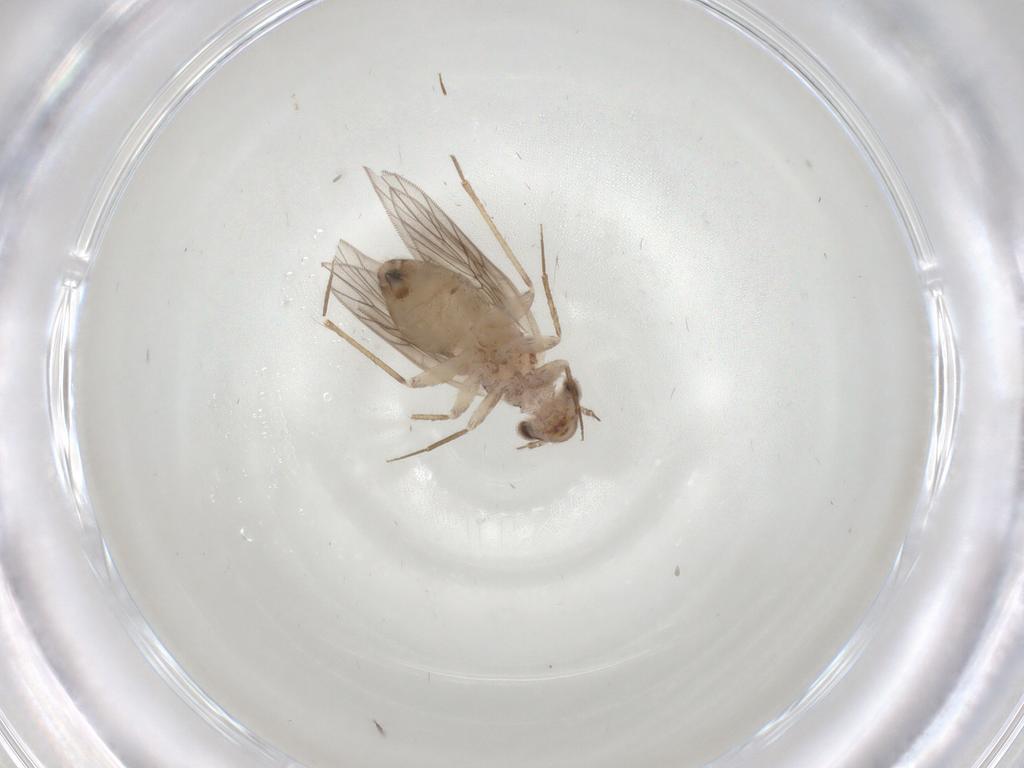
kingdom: Animalia
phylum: Arthropoda
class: Insecta
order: Psocodea
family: Lepidopsocidae
